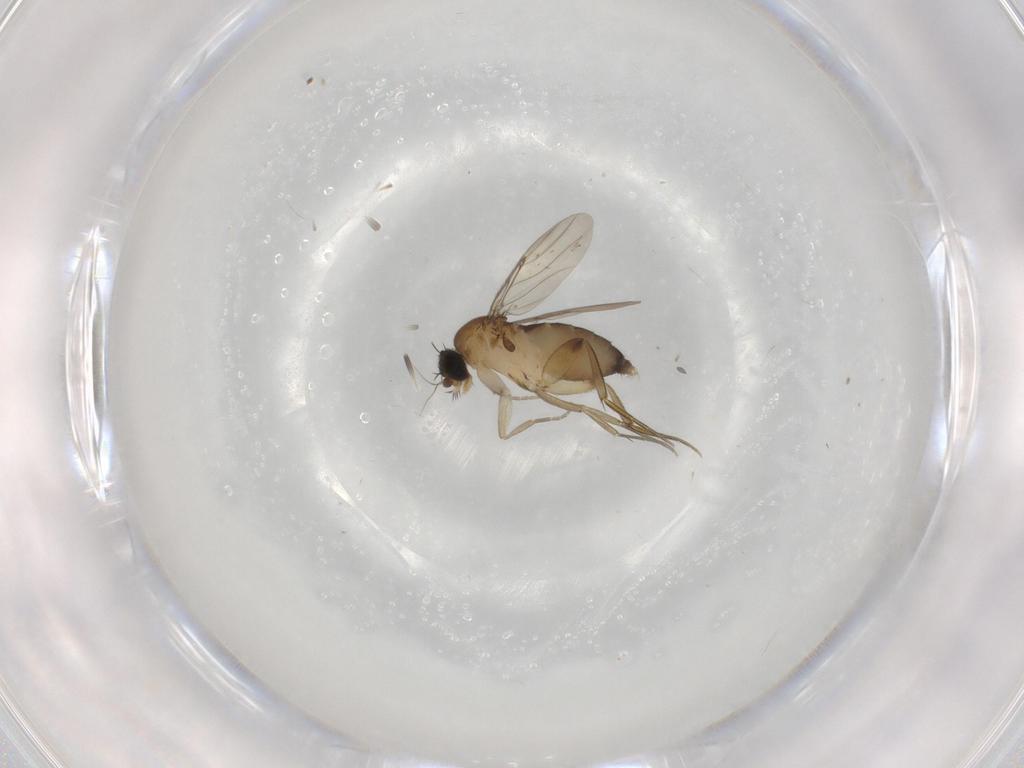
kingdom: Animalia
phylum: Arthropoda
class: Insecta
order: Diptera
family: Phoridae
